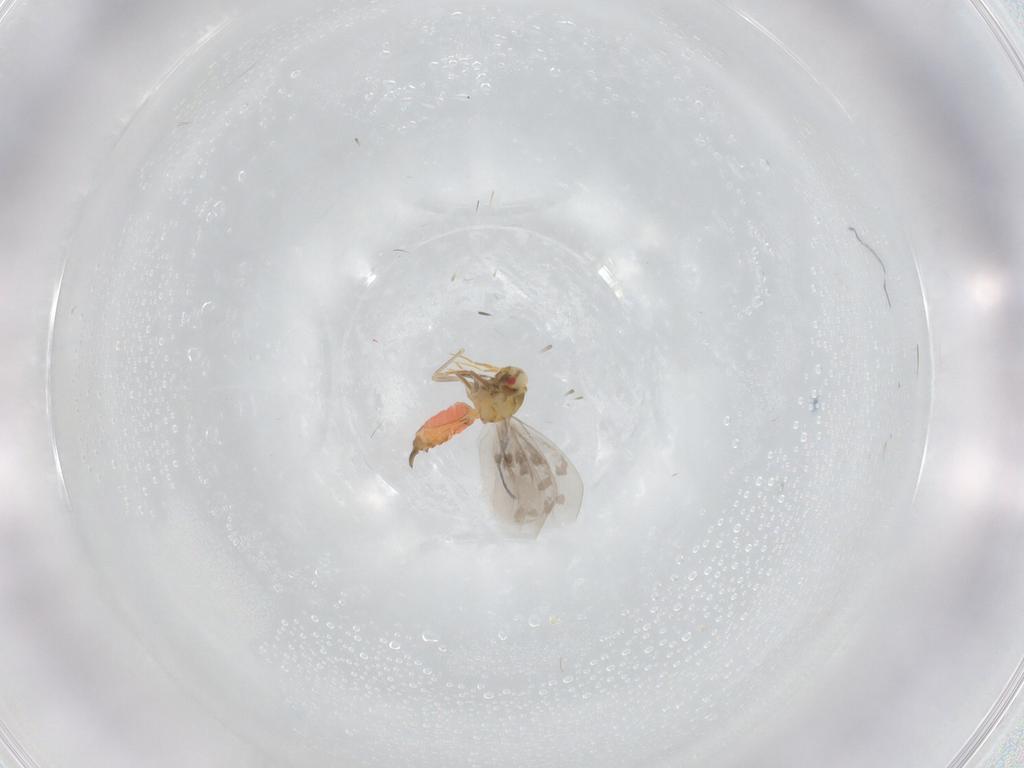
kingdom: Animalia
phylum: Arthropoda
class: Insecta
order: Hemiptera
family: Aleyrodidae
